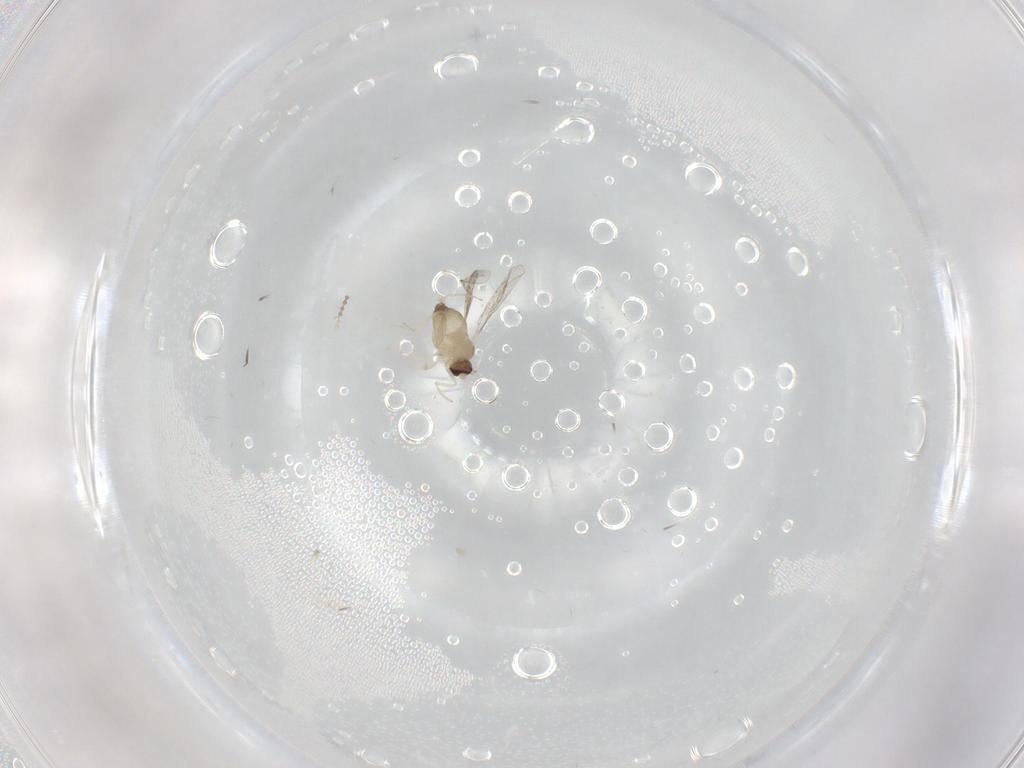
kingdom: Animalia
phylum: Arthropoda
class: Insecta
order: Diptera
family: Cecidomyiidae
